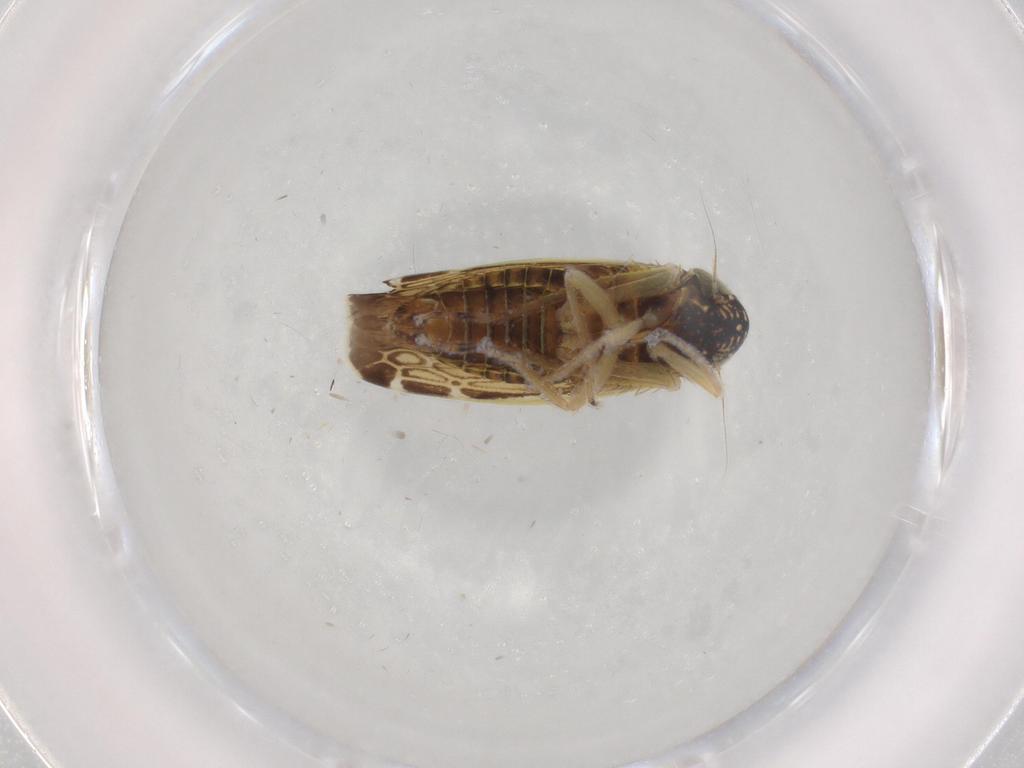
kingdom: Animalia
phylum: Arthropoda
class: Insecta
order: Hemiptera
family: Cicadellidae
